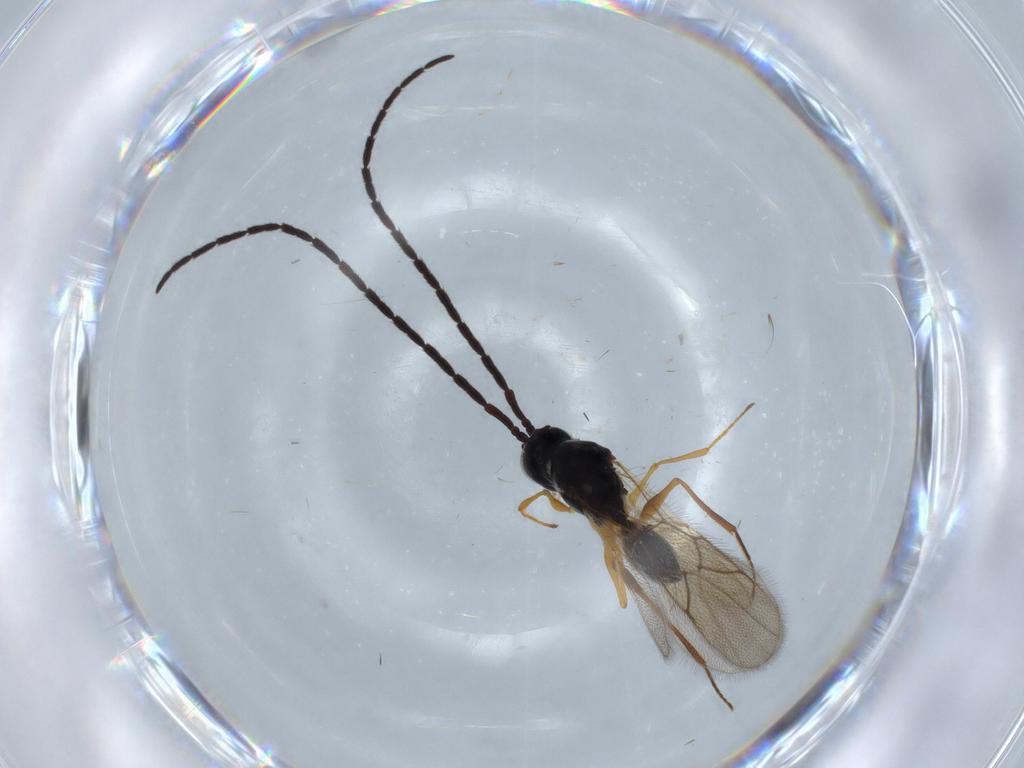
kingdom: Animalia
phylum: Arthropoda
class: Insecta
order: Hymenoptera
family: Figitidae
